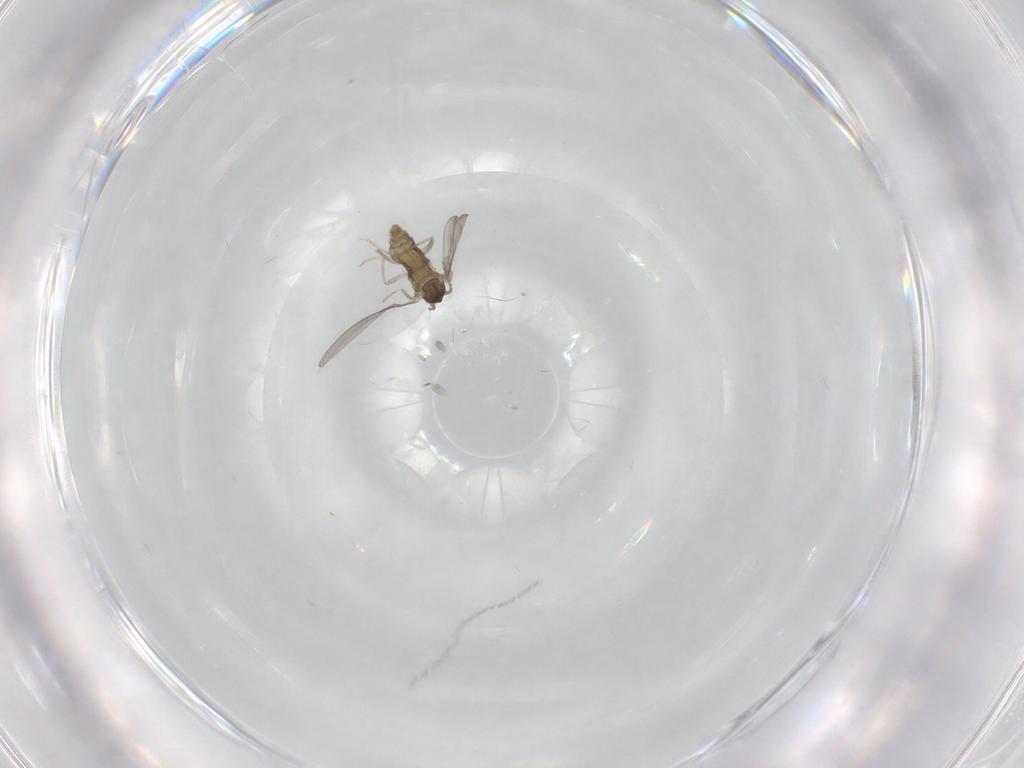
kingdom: Animalia
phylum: Arthropoda
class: Insecta
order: Diptera
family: Cecidomyiidae
